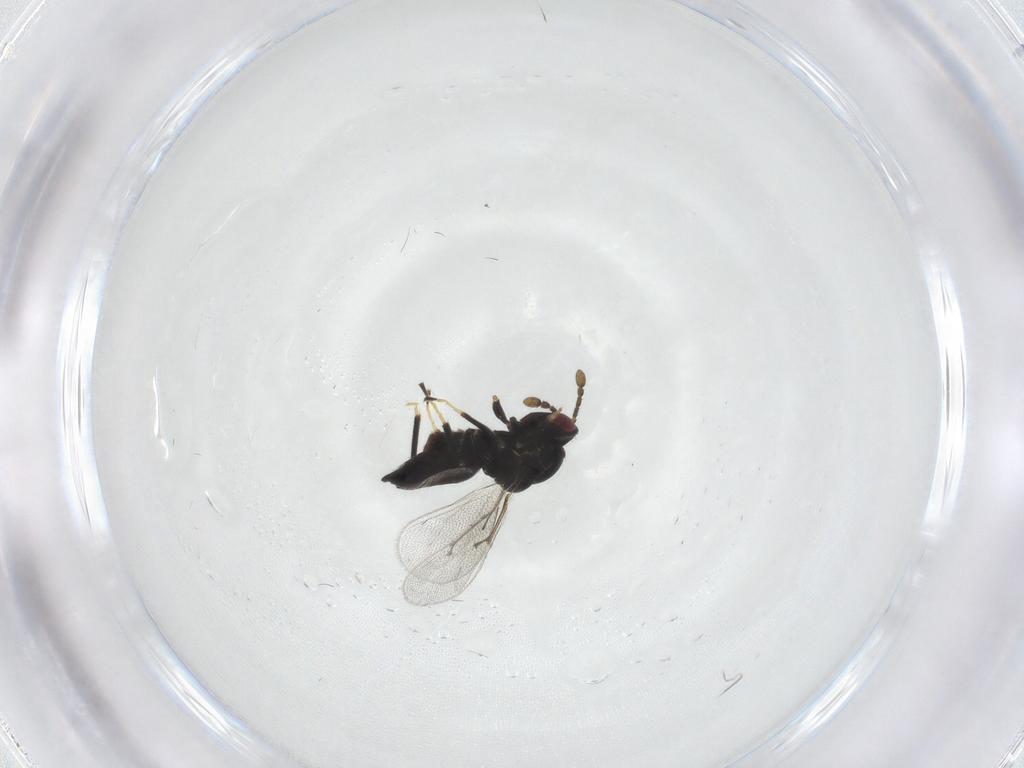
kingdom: Animalia
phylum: Arthropoda
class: Insecta
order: Hymenoptera
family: Eulophidae
